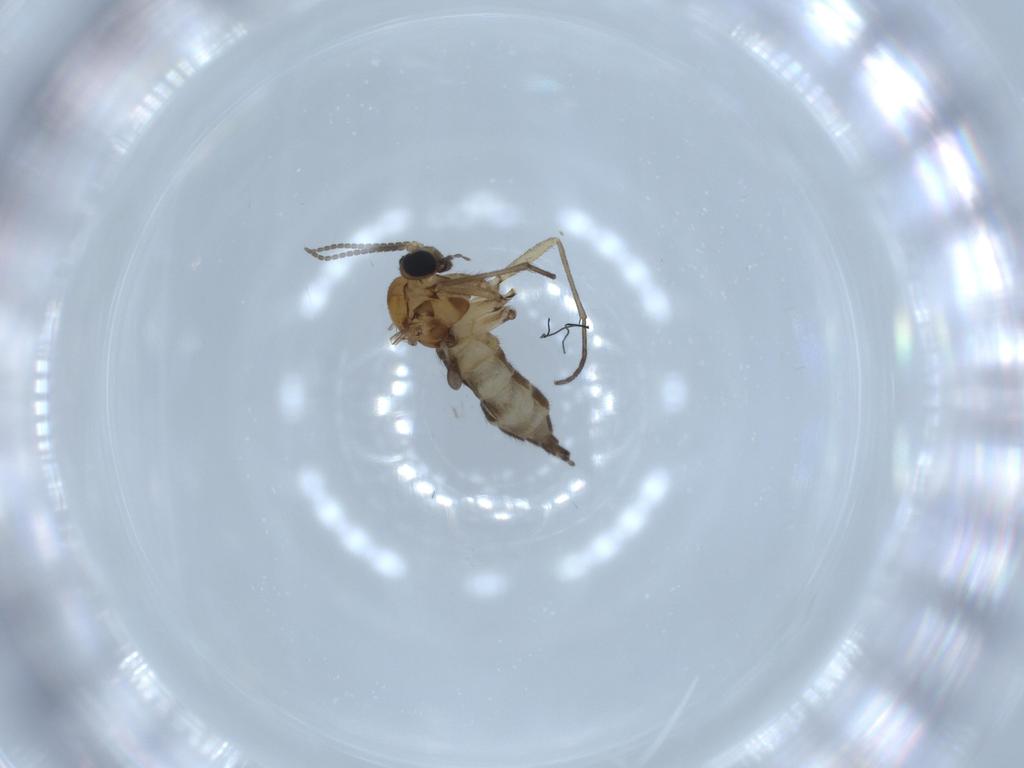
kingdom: Animalia
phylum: Arthropoda
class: Insecta
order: Diptera
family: Sciaridae
